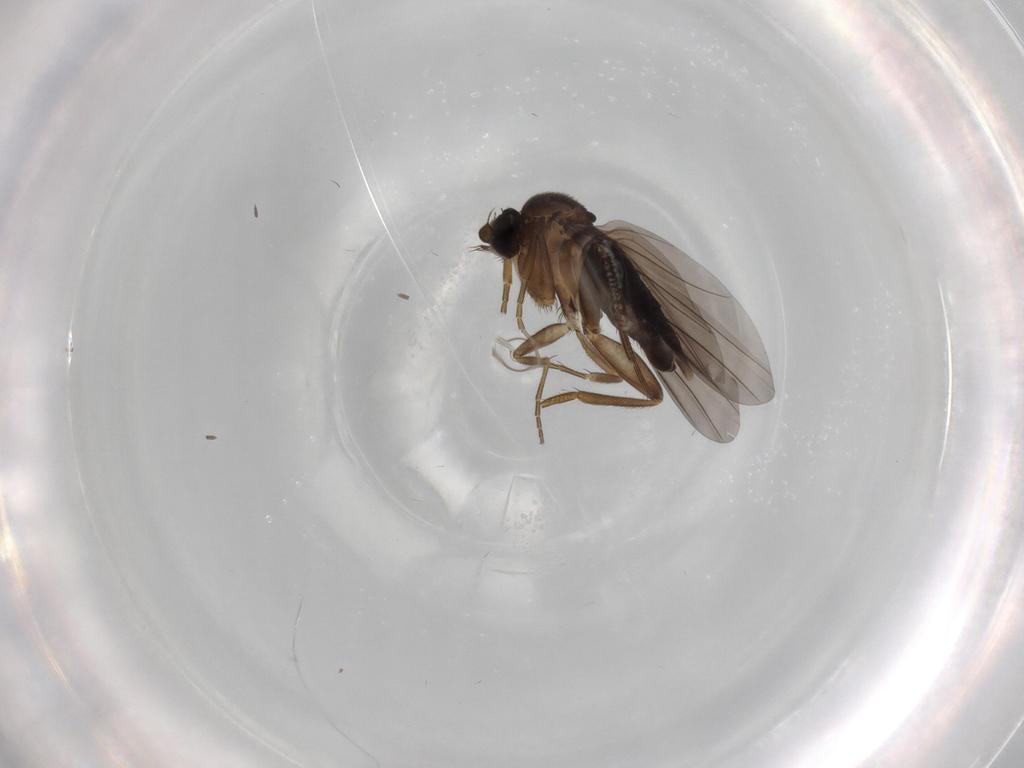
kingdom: Animalia
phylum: Arthropoda
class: Insecta
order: Diptera
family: Phoridae
